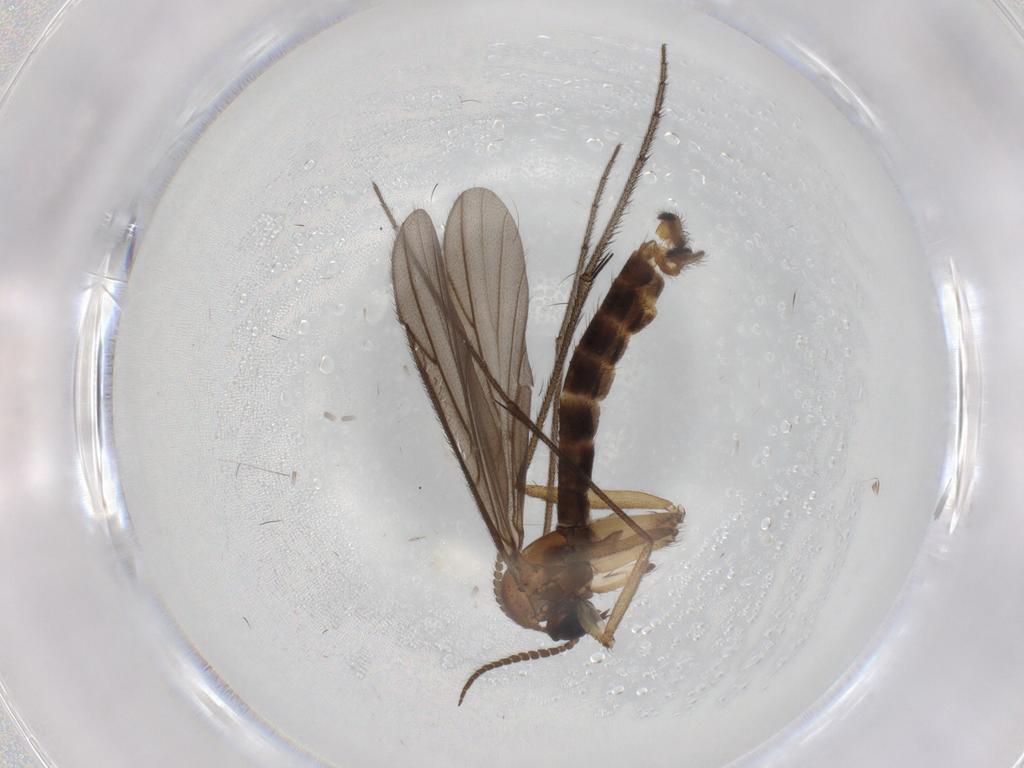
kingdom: Animalia
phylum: Arthropoda
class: Insecta
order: Diptera
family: Ditomyiidae
